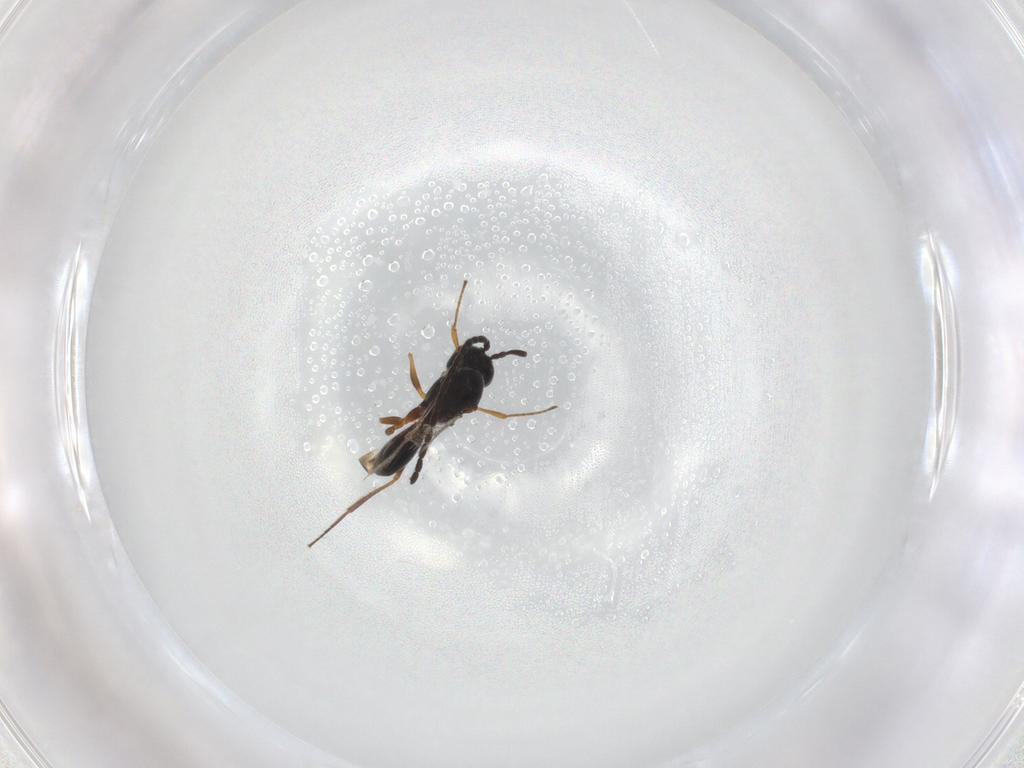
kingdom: Animalia
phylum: Arthropoda
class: Insecta
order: Hymenoptera
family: Figitidae
